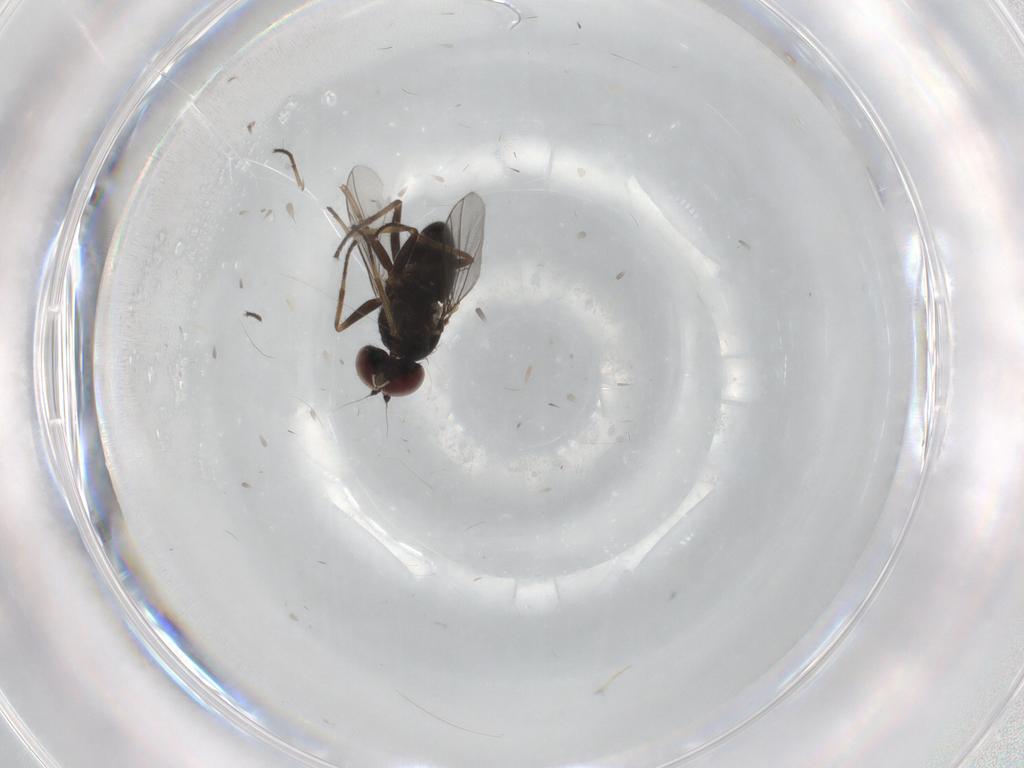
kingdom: Animalia
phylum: Arthropoda
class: Insecta
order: Diptera
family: Dolichopodidae
